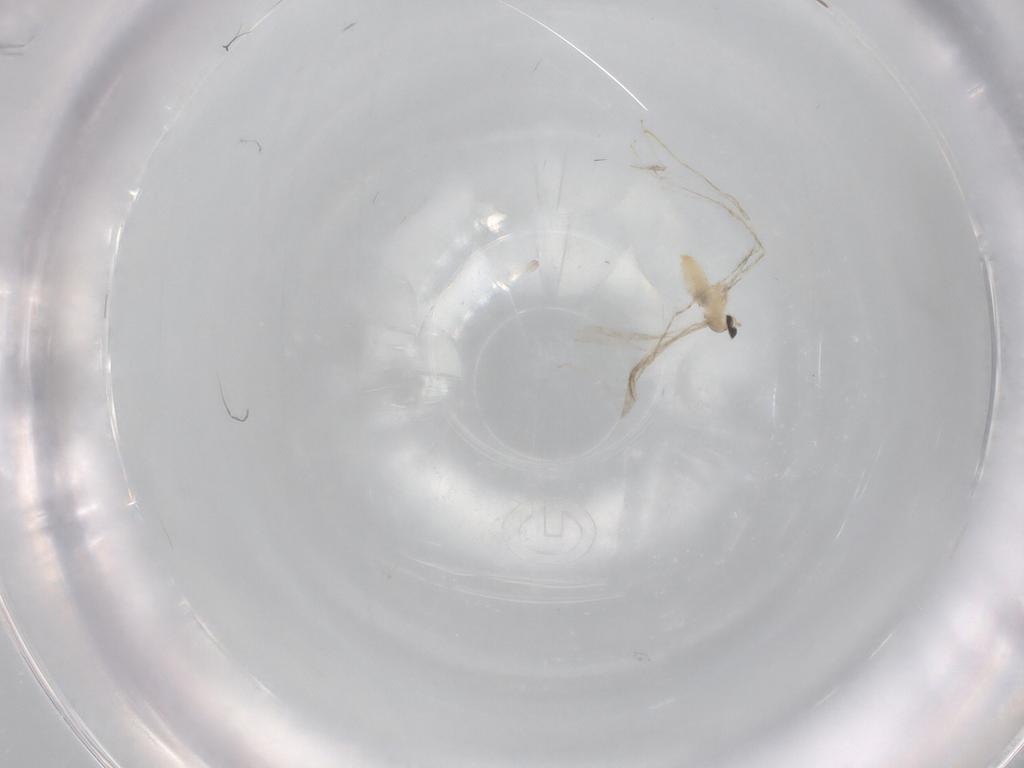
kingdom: Animalia
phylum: Arthropoda
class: Insecta
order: Diptera
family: Cecidomyiidae
